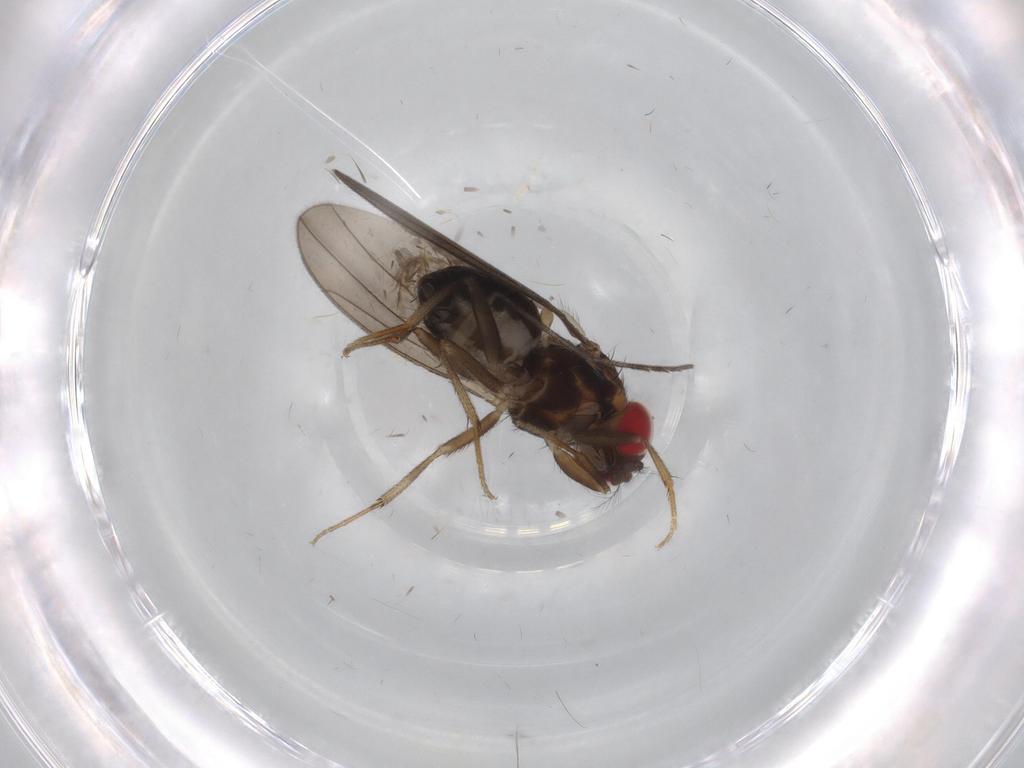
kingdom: Animalia
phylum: Arthropoda
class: Insecta
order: Diptera
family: Drosophilidae
